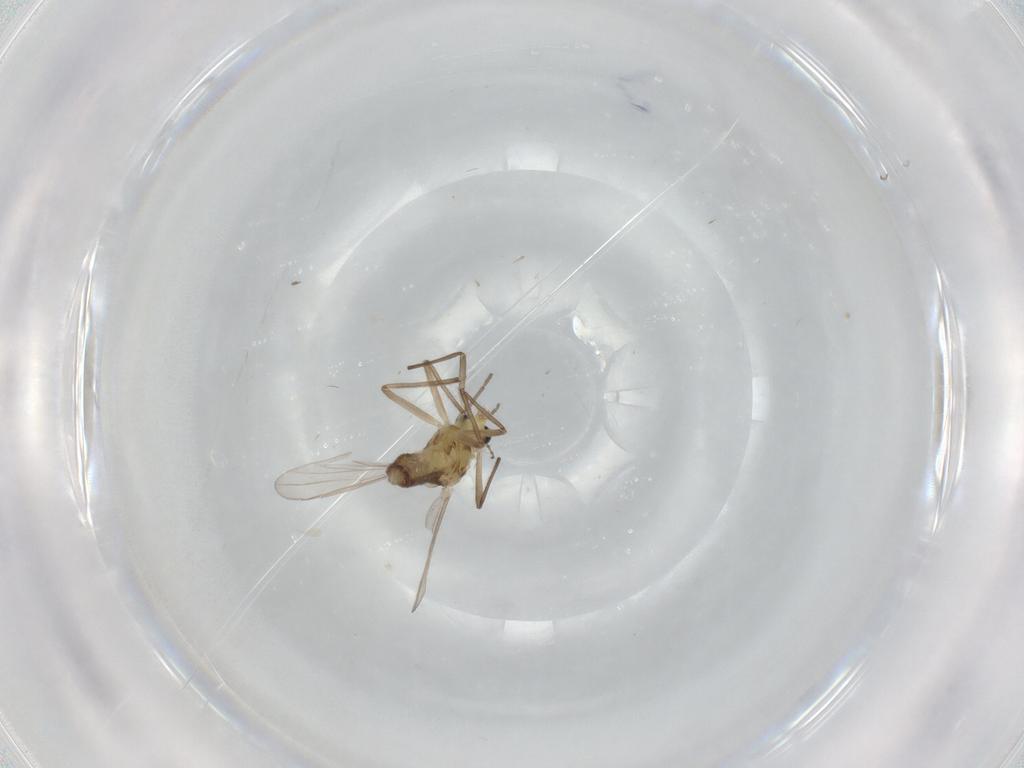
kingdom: Animalia
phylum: Arthropoda
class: Insecta
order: Diptera
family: Chironomidae
